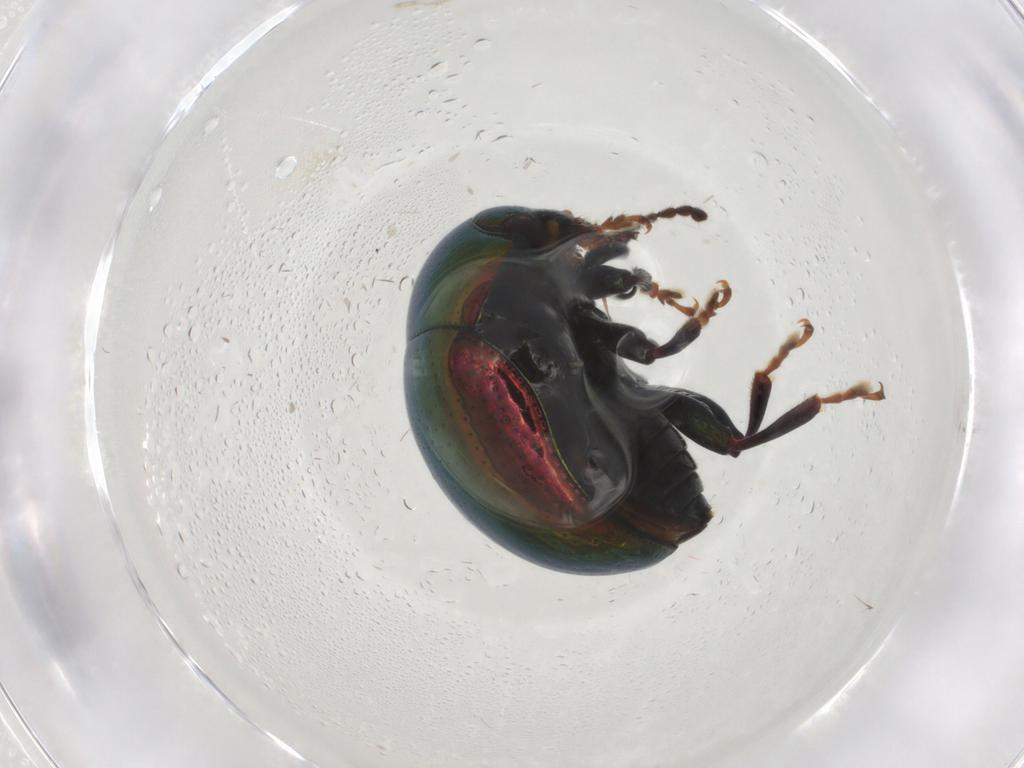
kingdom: Animalia
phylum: Arthropoda
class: Insecta
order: Coleoptera
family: Chrysomelidae
